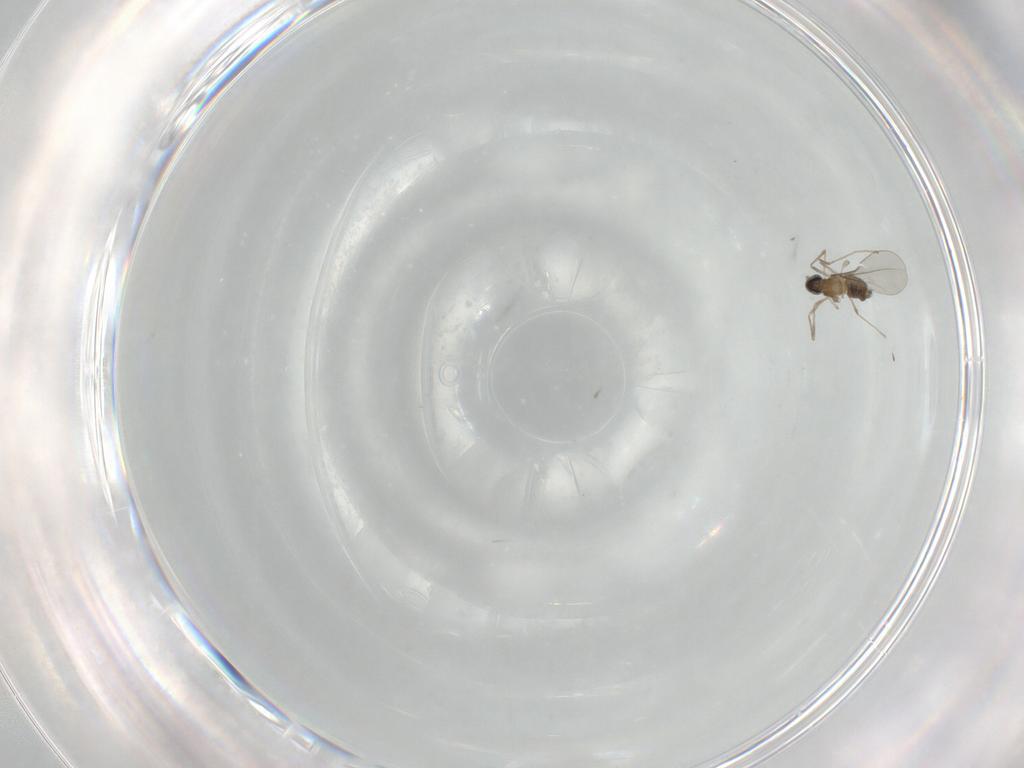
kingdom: Animalia
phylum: Arthropoda
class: Insecta
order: Diptera
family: Cecidomyiidae
